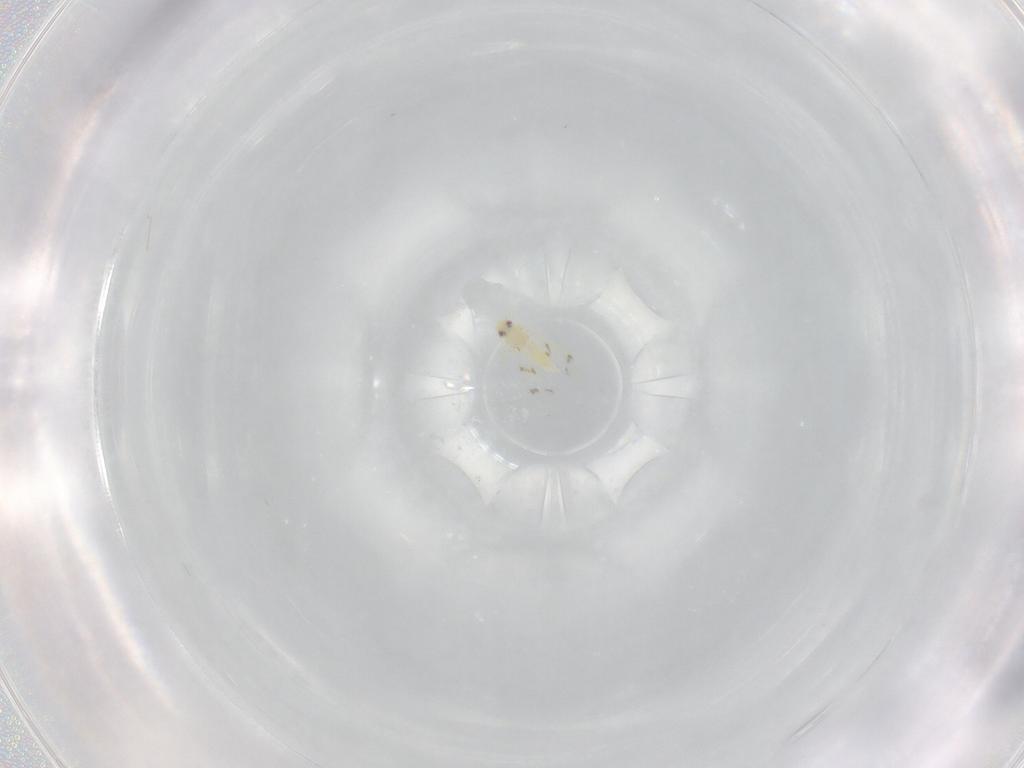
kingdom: Animalia
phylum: Arthropoda
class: Insecta
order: Hemiptera
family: Aleyrodidae
